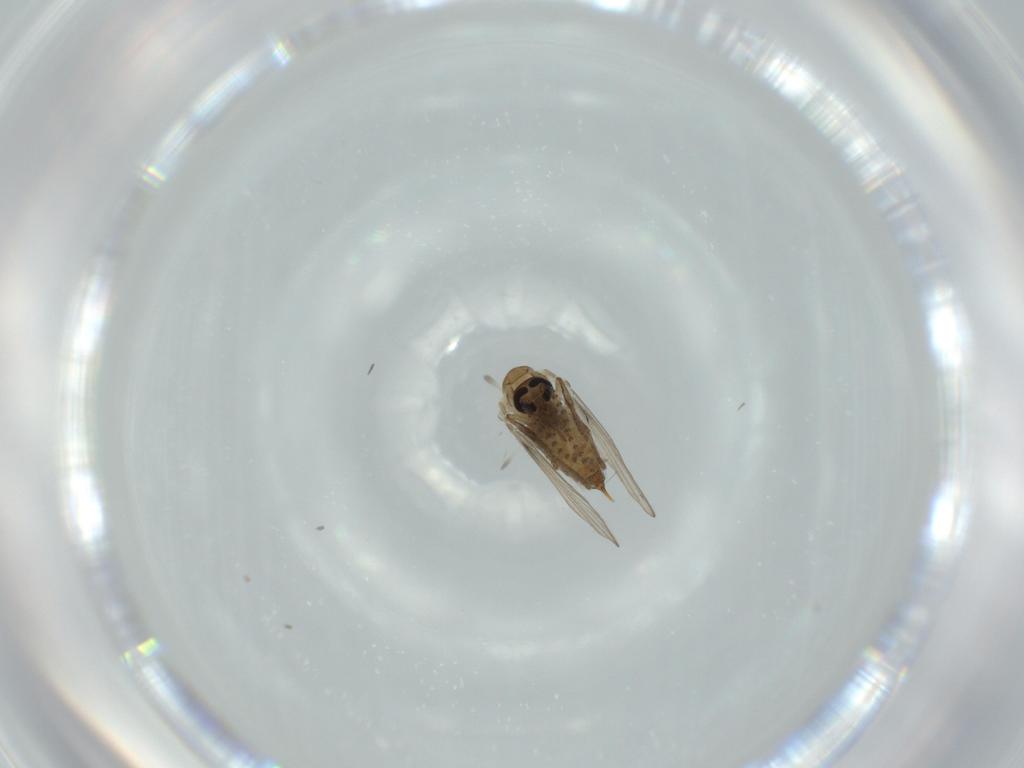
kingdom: Animalia
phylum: Arthropoda
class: Insecta
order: Diptera
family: Psychodidae
